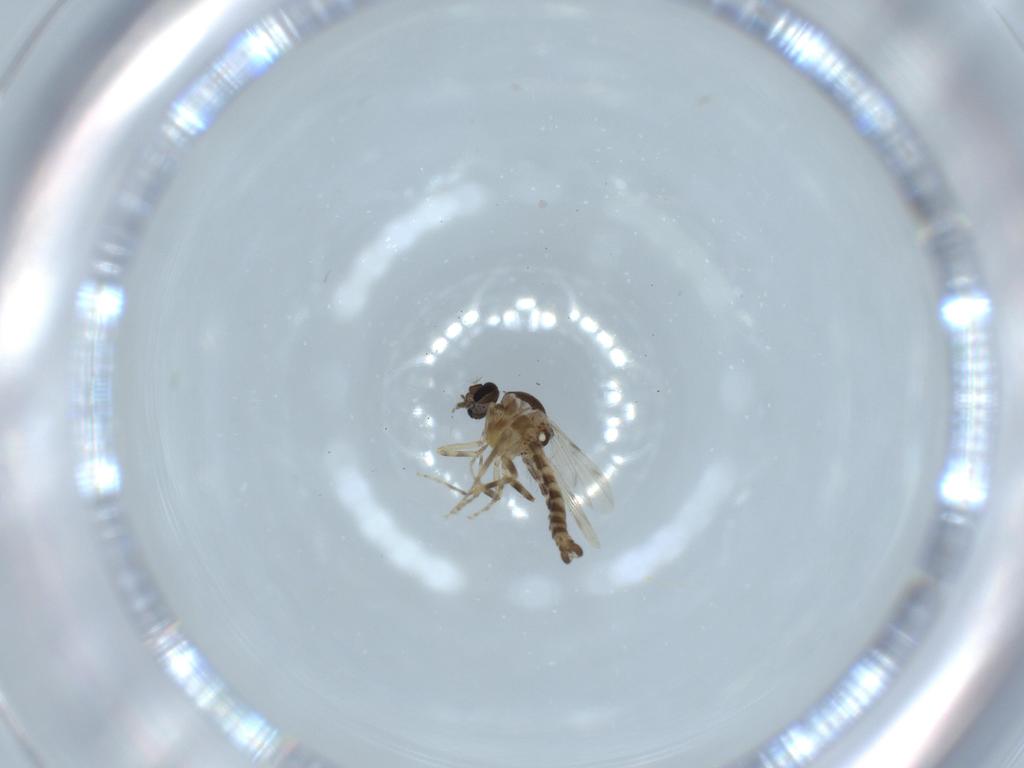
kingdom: Animalia
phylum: Arthropoda
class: Insecta
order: Diptera
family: Ceratopogonidae
